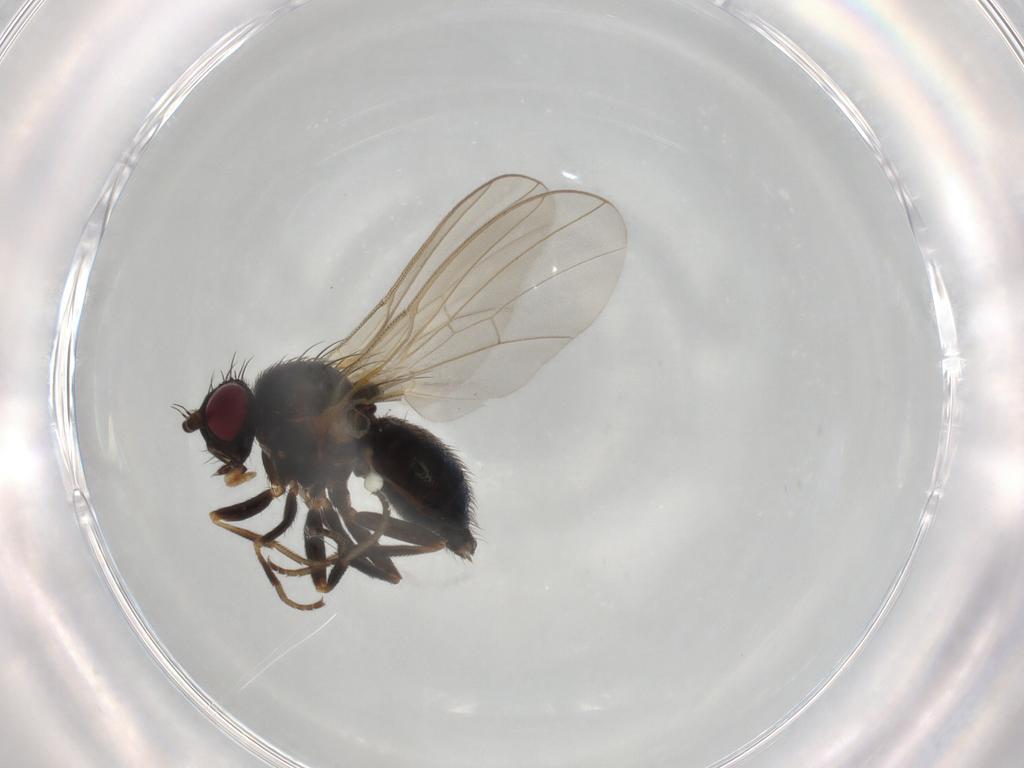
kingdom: Animalia
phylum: Arthropoda
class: Insecta
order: Diptera
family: Agromyzidae
